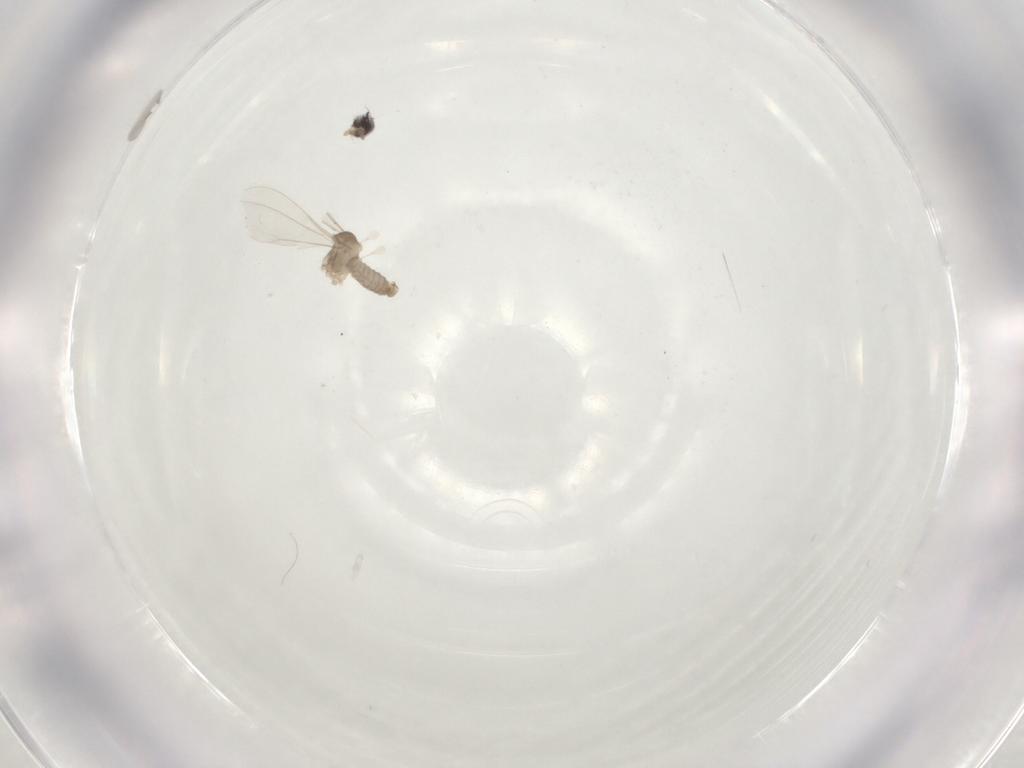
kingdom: Animalia
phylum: Arthropoda
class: Insecta
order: Diptera
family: Cecidomyiidae
